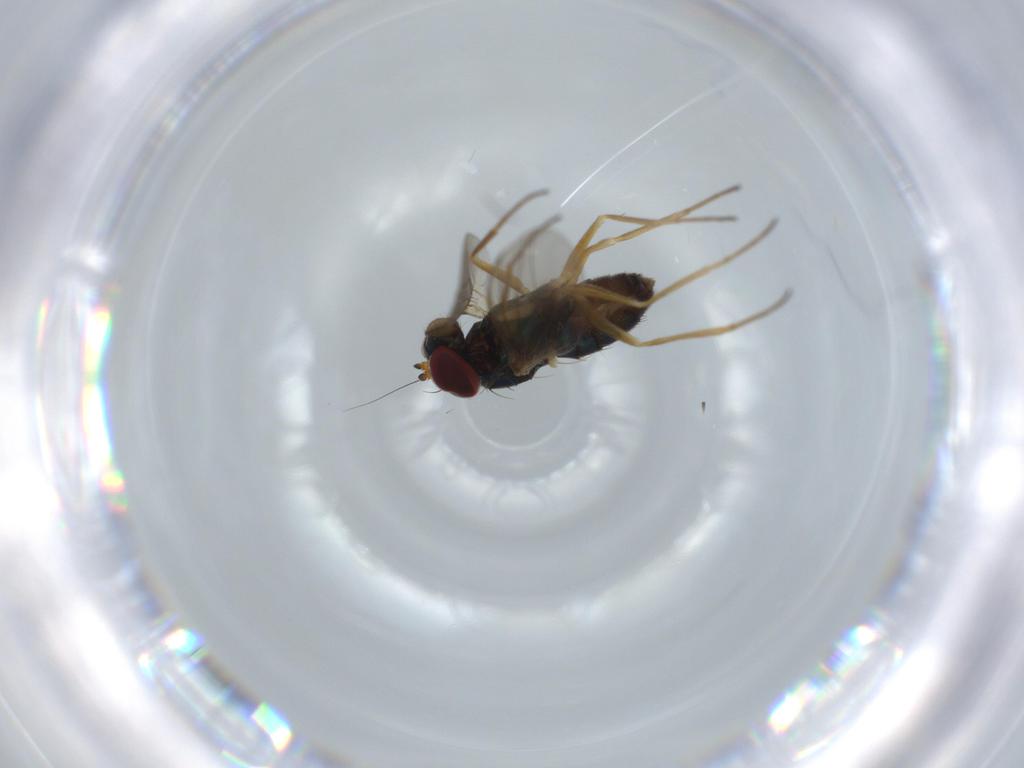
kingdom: Animalia
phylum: Arthropoda
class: Insecta
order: Diptera
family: Dolichopodidae
